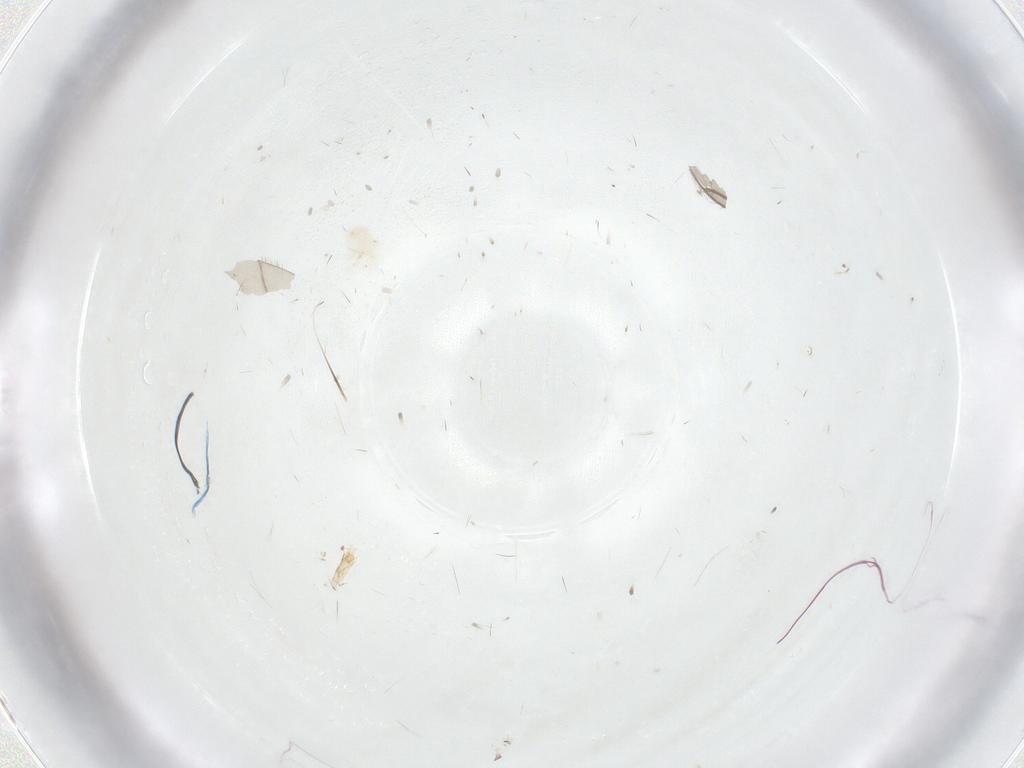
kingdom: Animalia
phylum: Arthropoda
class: Arachnida
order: Trombidiformes
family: Anystidae
